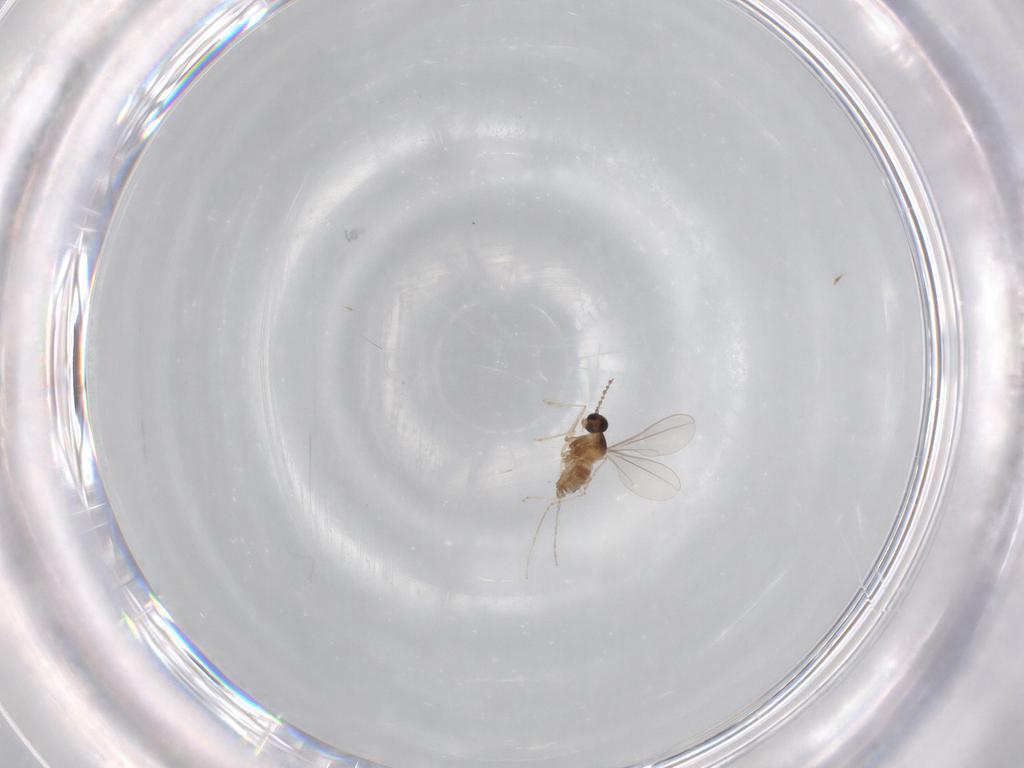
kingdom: Animalia
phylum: Arthropoda
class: Insecta
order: Diptera
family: Cecidomyiidae
